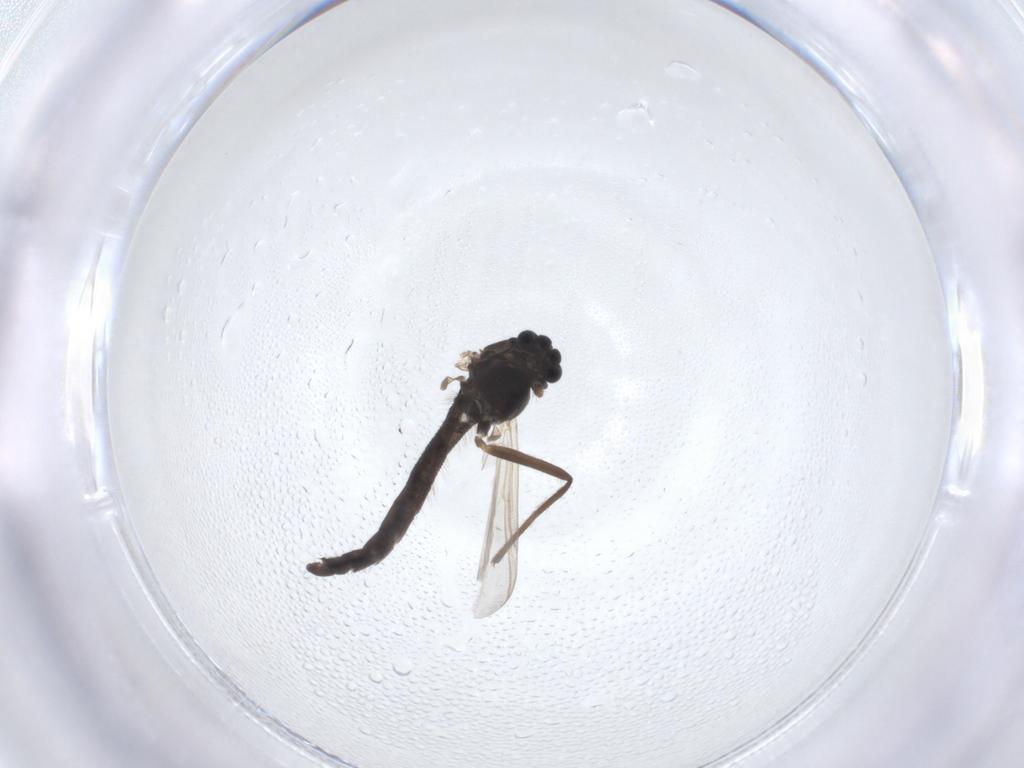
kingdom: Animalia
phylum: Arthropoda
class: Insecta
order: Diptera
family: Chironomidae
